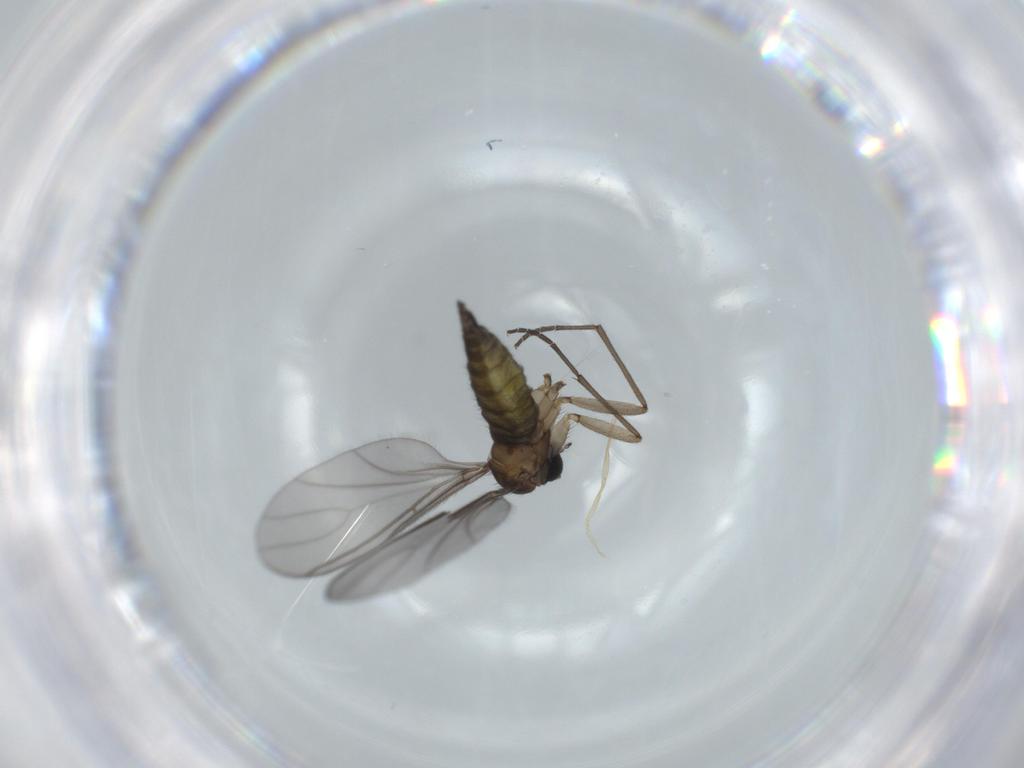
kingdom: Animalia
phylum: Arthropoda
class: Insecta
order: Diptera
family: Sciaridae
